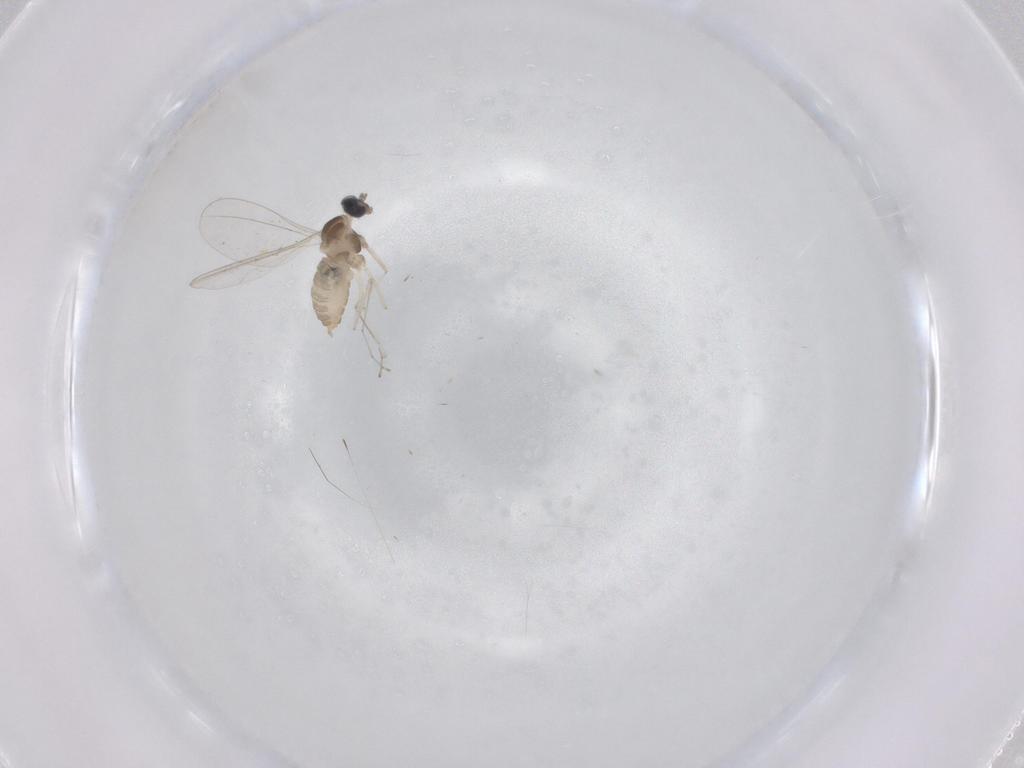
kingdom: Animalia
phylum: Arthropoda
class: Insecta
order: Diptera
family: Cecidomyiidae
